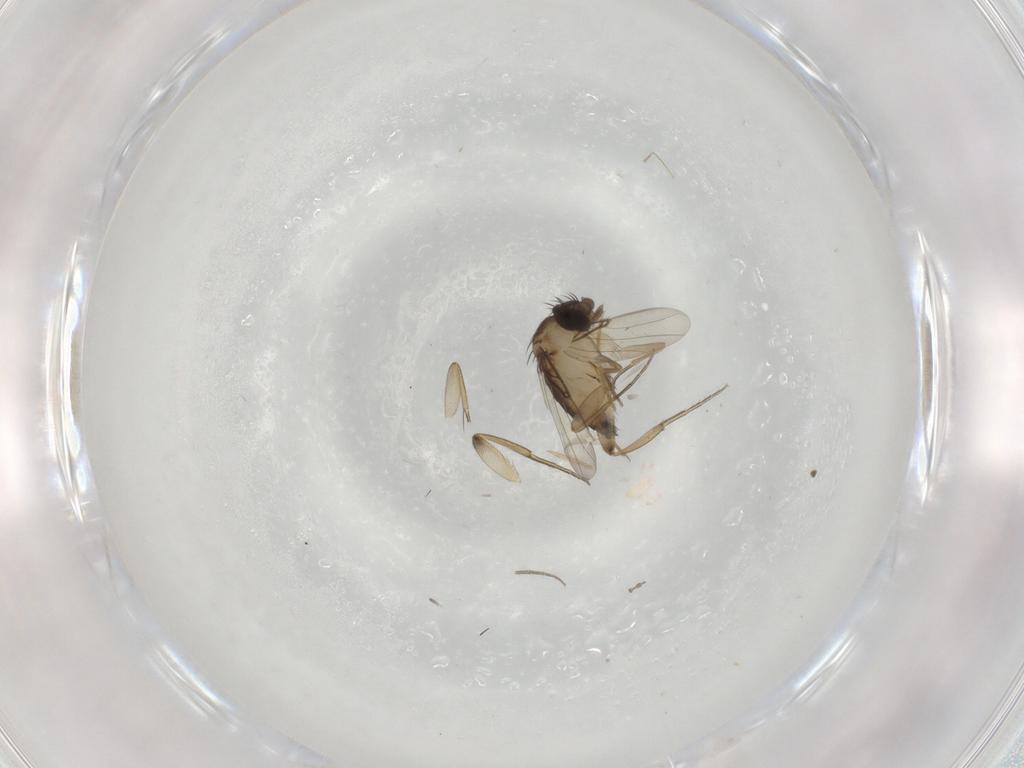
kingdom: Animalia
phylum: Arthropoda
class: Insecta
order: Diptera
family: Phoridae
